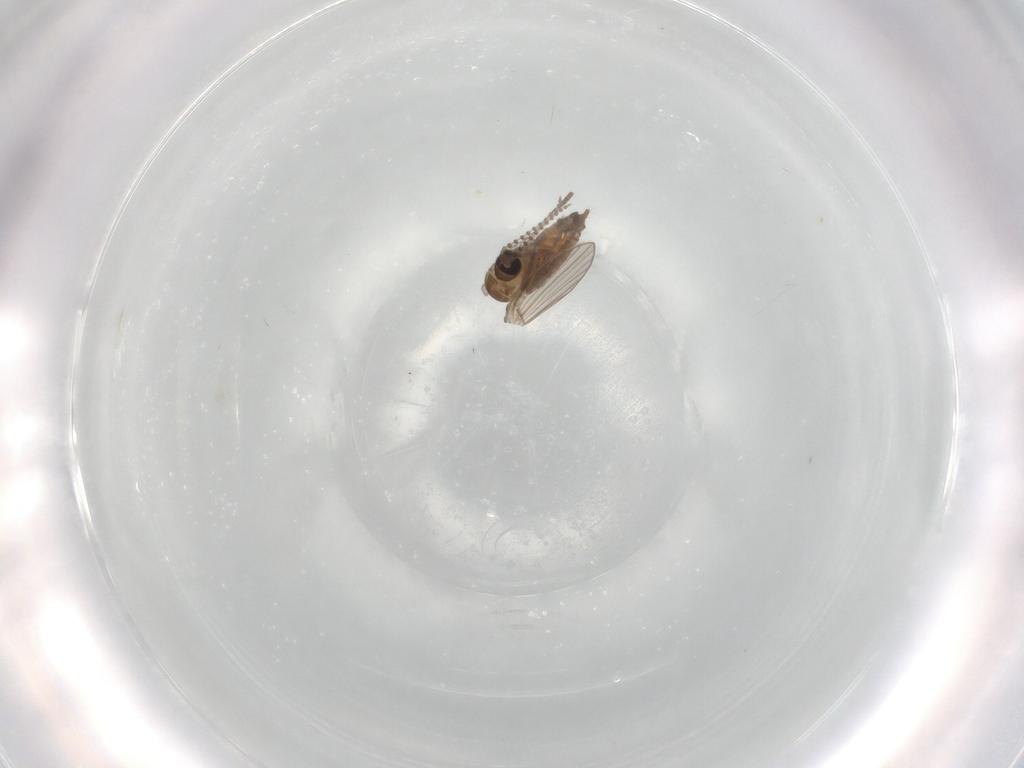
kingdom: Animalia
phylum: Arthropoda
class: Insecta
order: Diptera
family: Psychodidae
